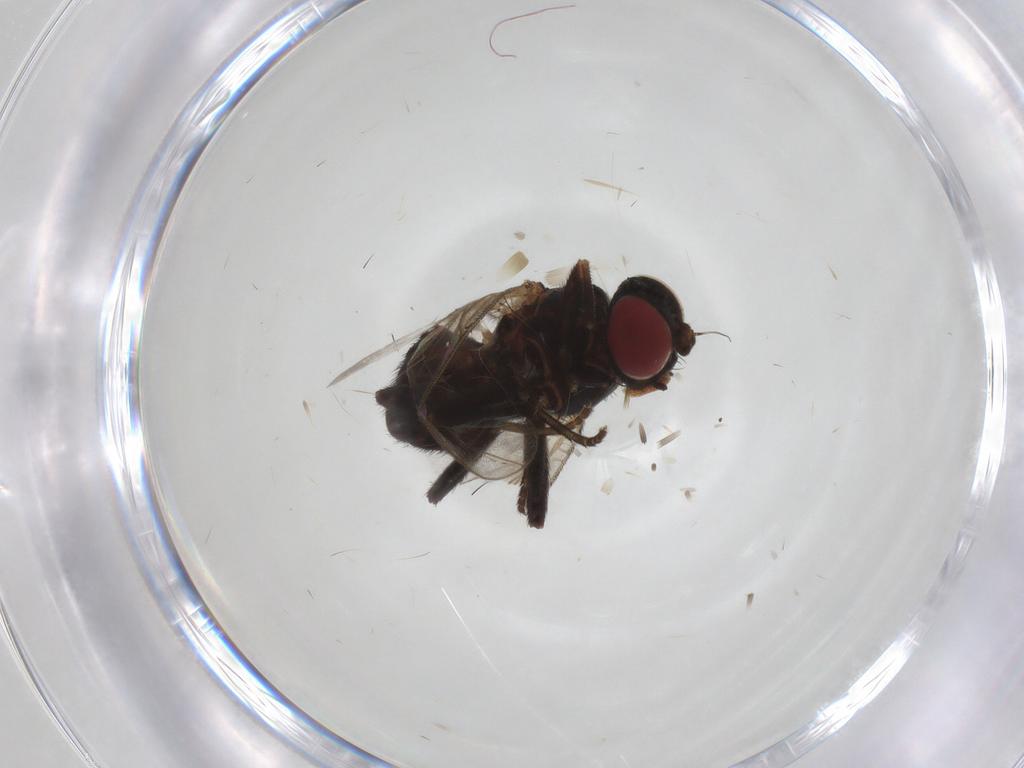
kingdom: Animalia
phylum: Arthropoda
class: Insecta
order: Diptera
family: Agromyzidae
